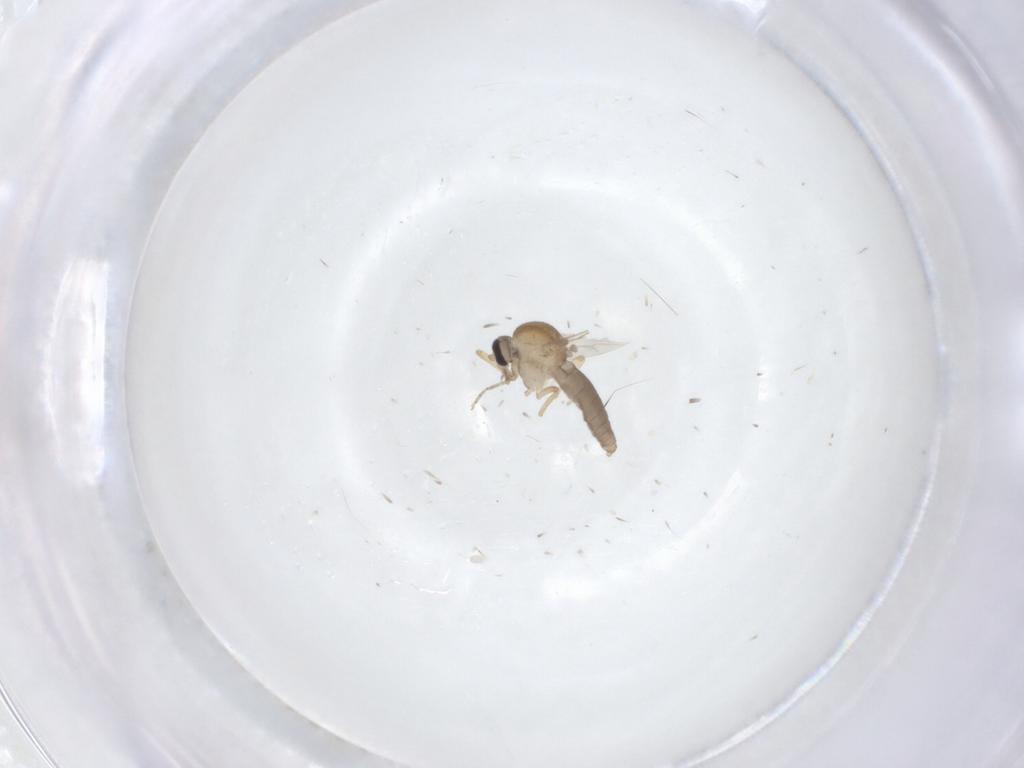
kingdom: Animalia
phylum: Arthropoda
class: Insecta
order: Diptera
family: Ceratopogonidae
